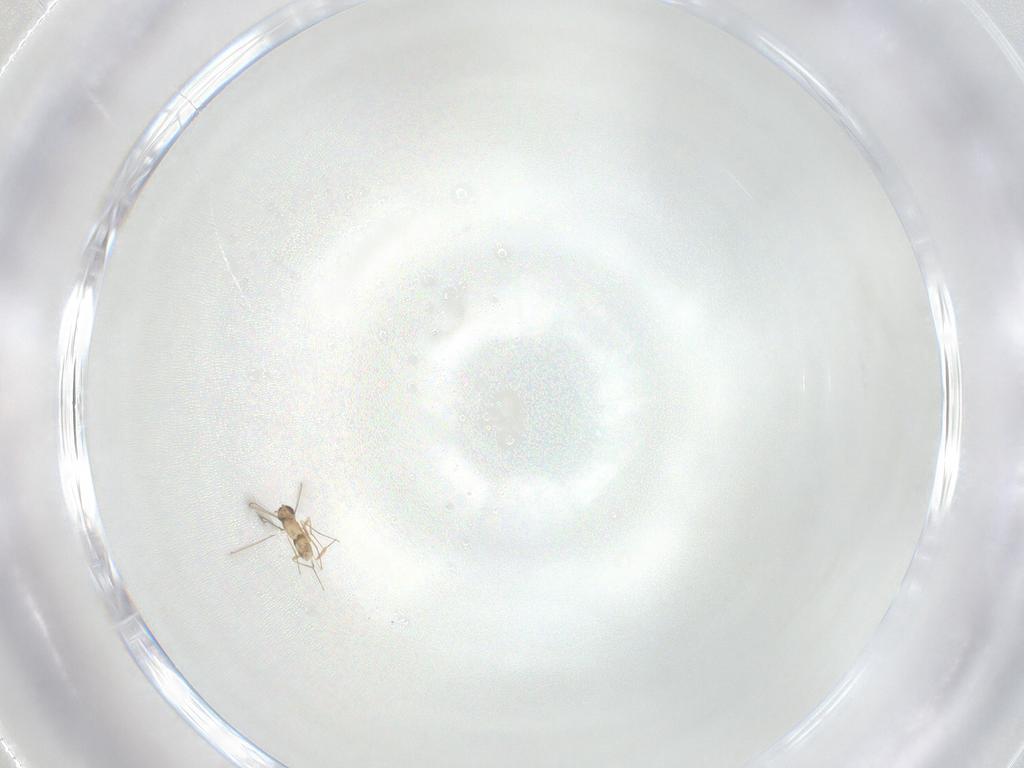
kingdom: Animalia
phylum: Arthropoda
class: Insecta
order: Hymenoptera
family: Mymaridae
